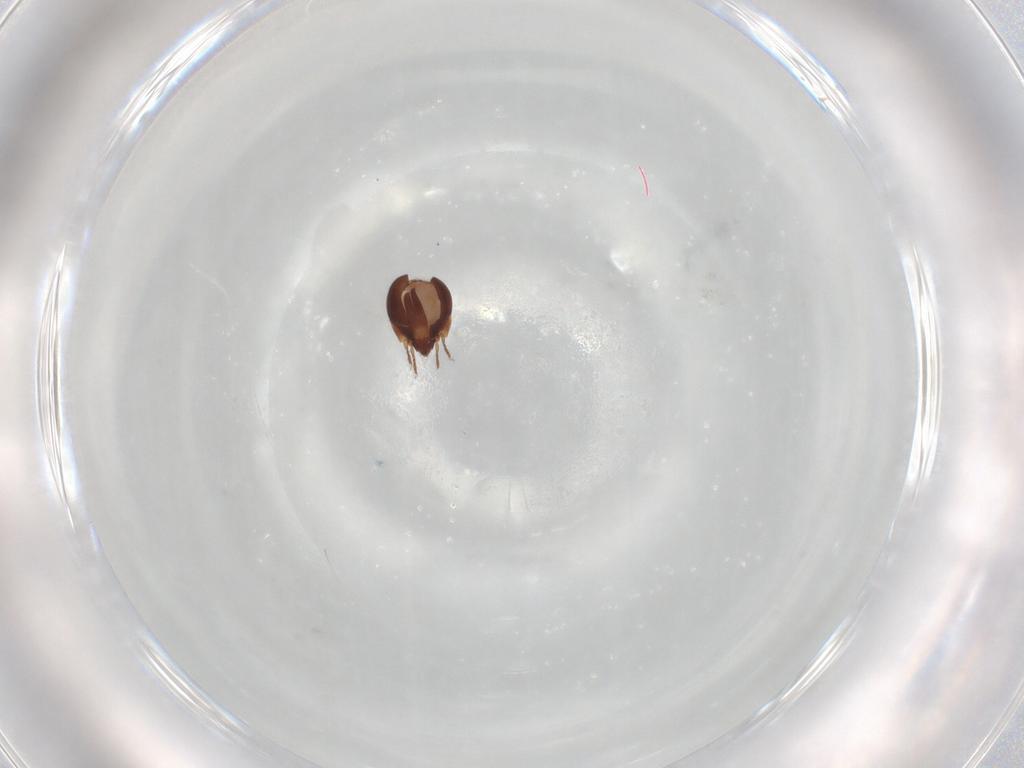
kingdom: Animalia
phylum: Arthropoda
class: Arachnida
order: Sarcoptiformes
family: Humerobatidae
